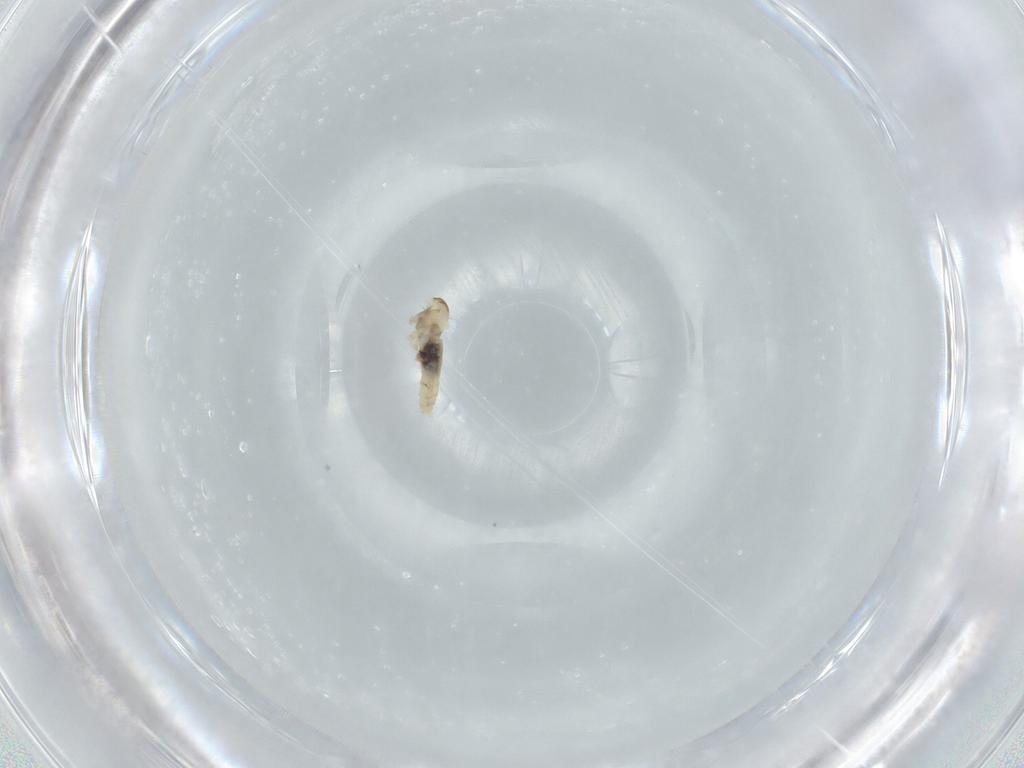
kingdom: Animalia
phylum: Arthropoda
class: Insecta
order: Diptera
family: Cecidomyiidae
